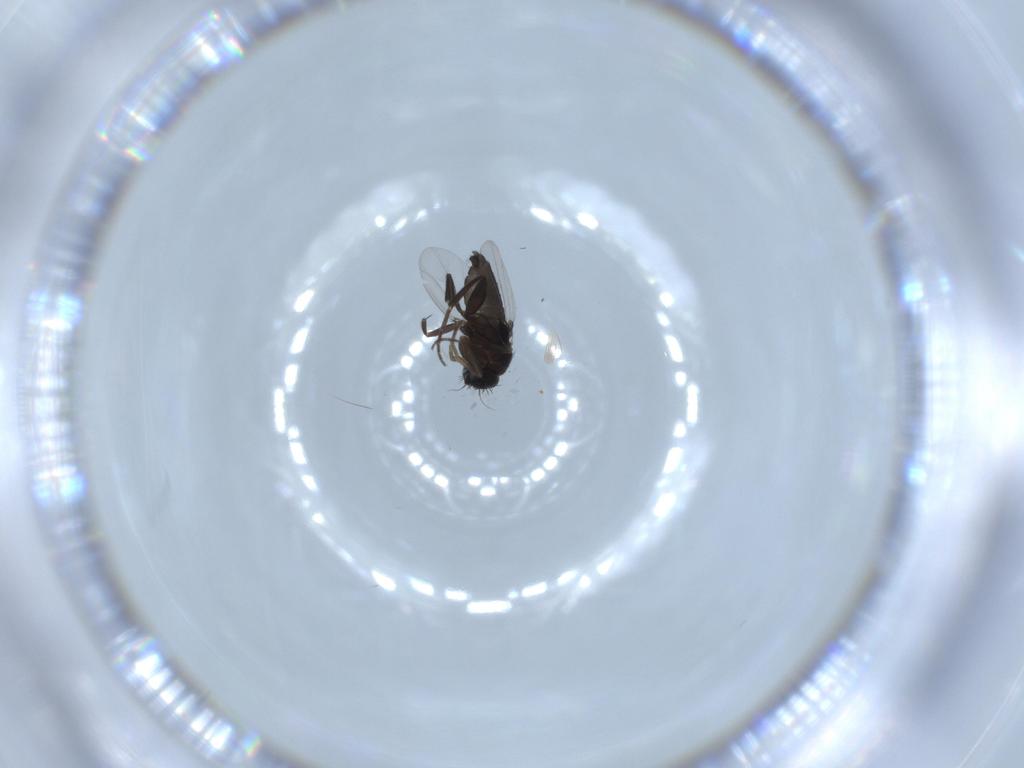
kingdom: Animalia
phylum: Arthropoda
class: Insecta
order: Diptera
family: Phoridae
